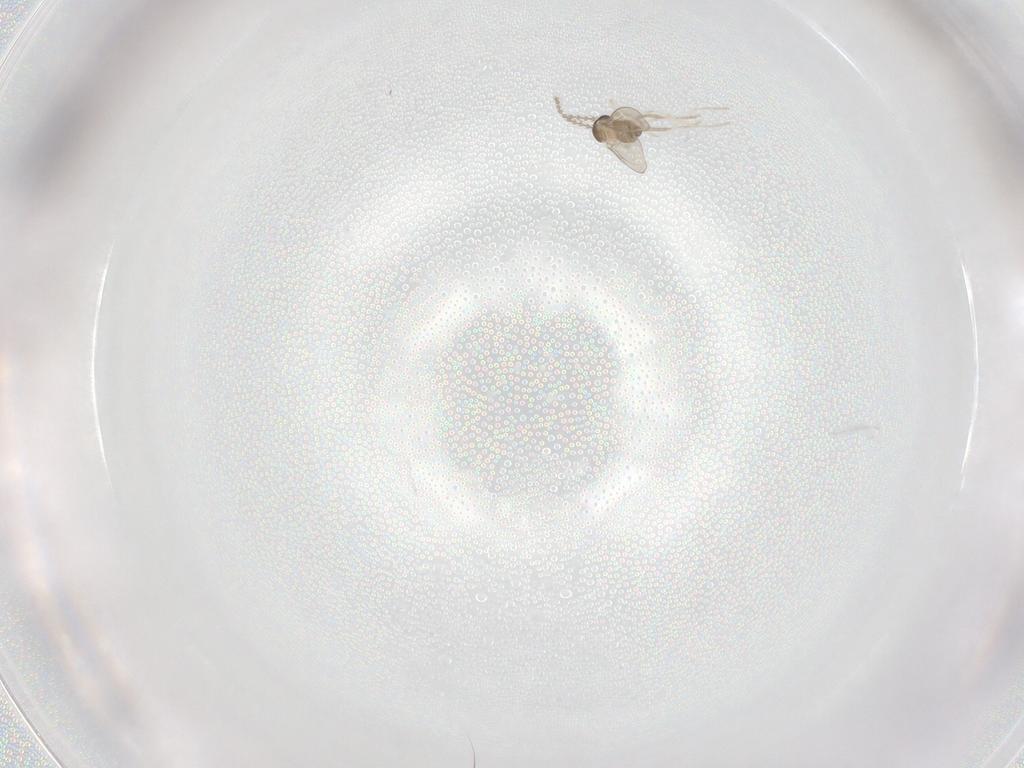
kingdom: Animalia
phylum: Arthropoda
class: Insecta
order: Diptera
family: Cecidomyiidae
